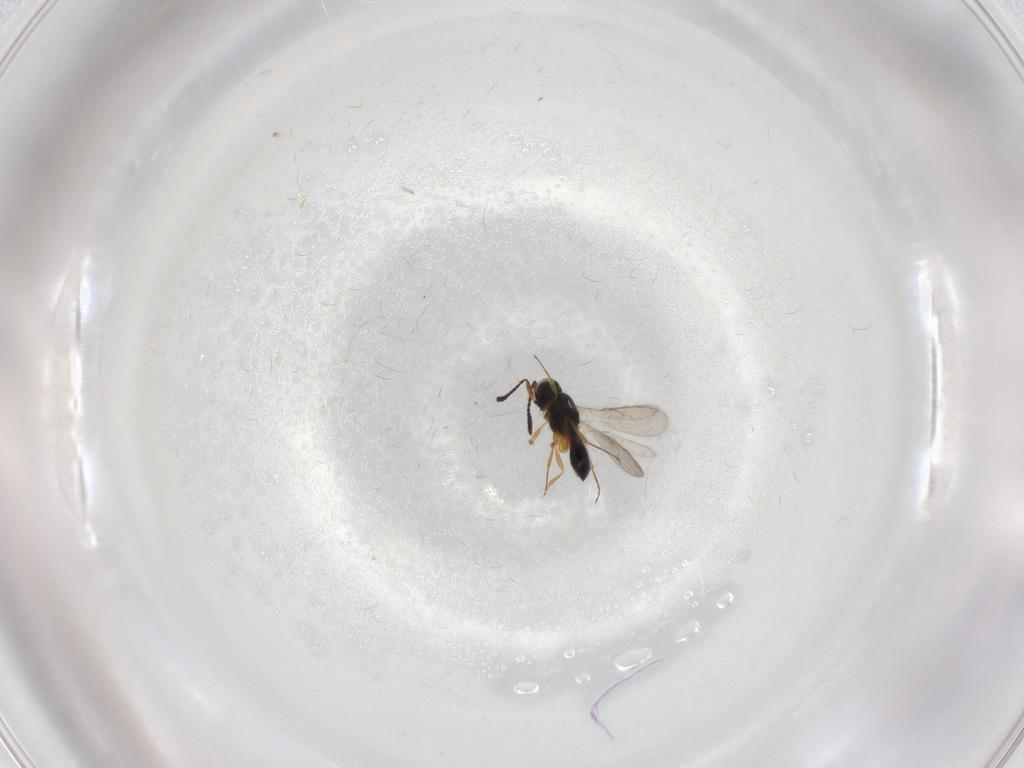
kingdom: Animalia
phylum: Arthropoda
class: Insecta
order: Hymenoptera
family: Scelionidae
